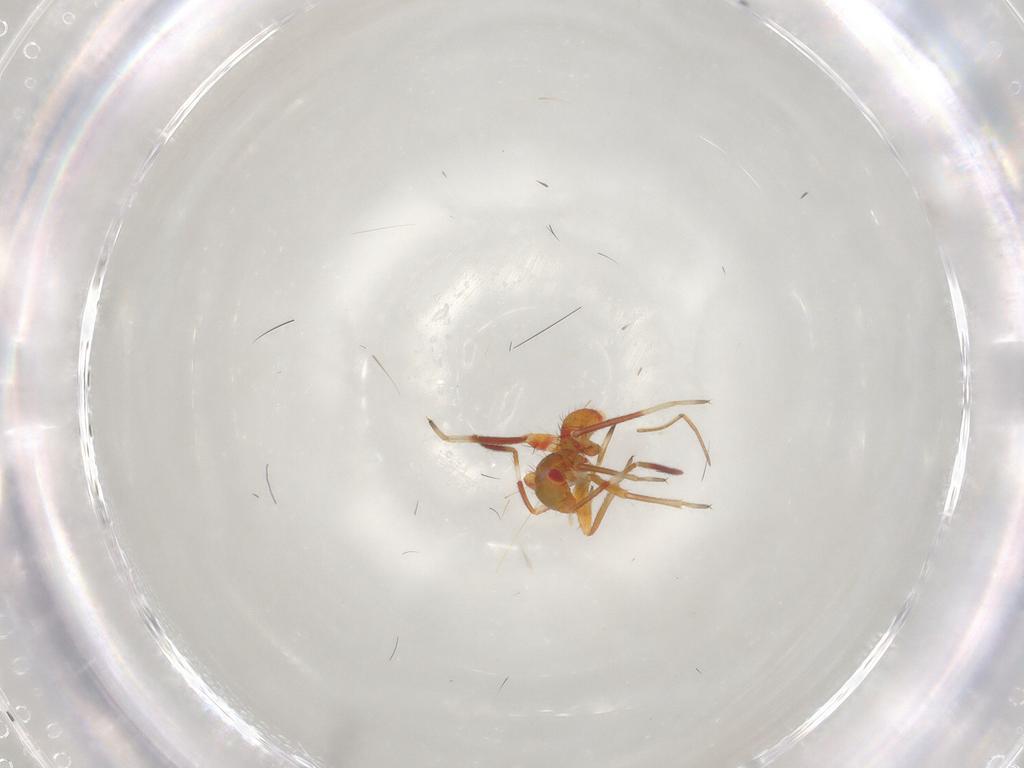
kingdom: Animalia
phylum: Arthropoda
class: Insecta
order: Hemiptera
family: Miridae
